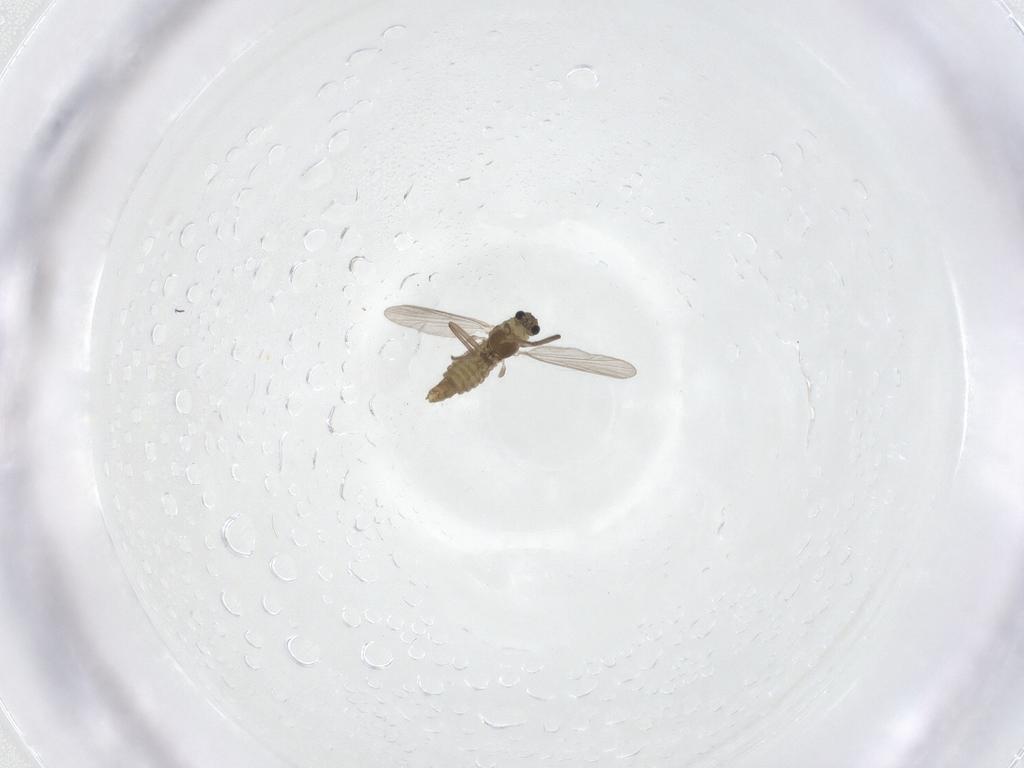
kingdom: Animalia
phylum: Arthropoda
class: Insecta
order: Diptera
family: Chironomidae
